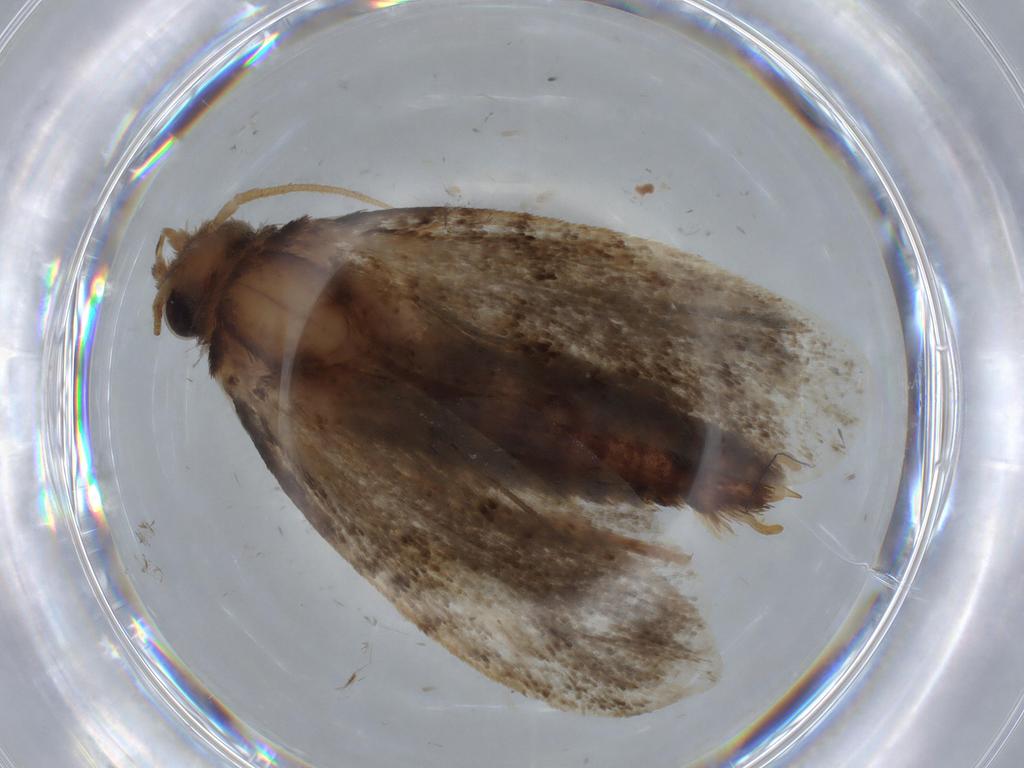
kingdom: Animalia
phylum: Arthropoda
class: Insecta
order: Lepidoptera
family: Tineidae
